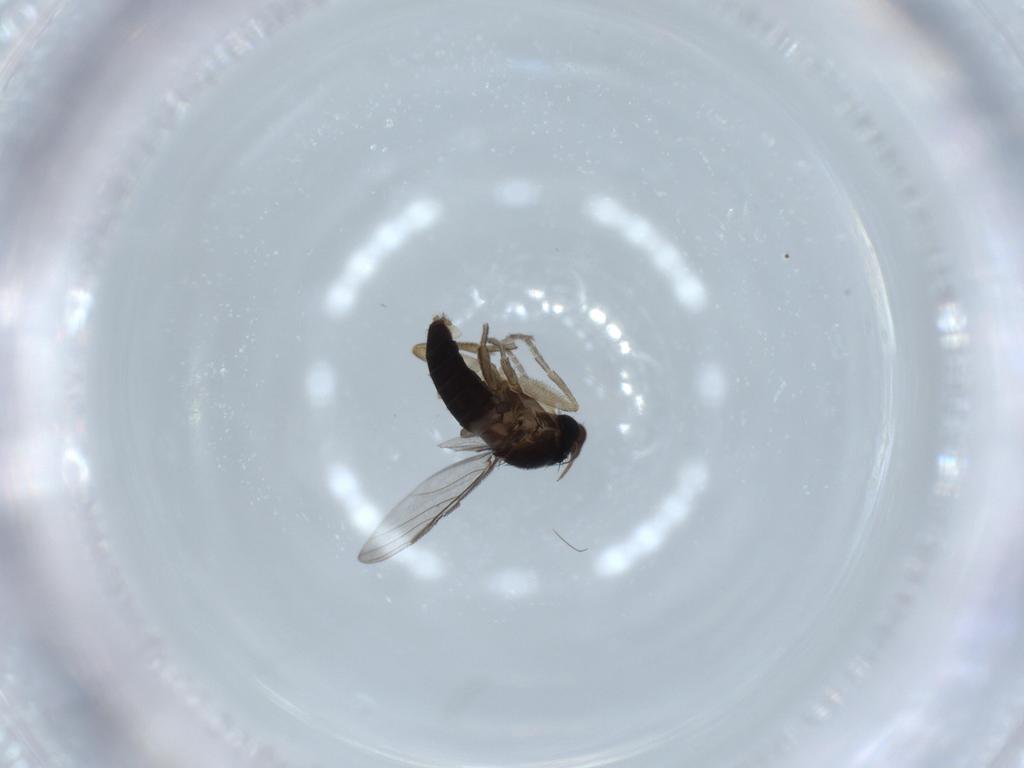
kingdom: Animalia
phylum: Arthropoda
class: Insecta
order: Diptera
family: Phoridae
